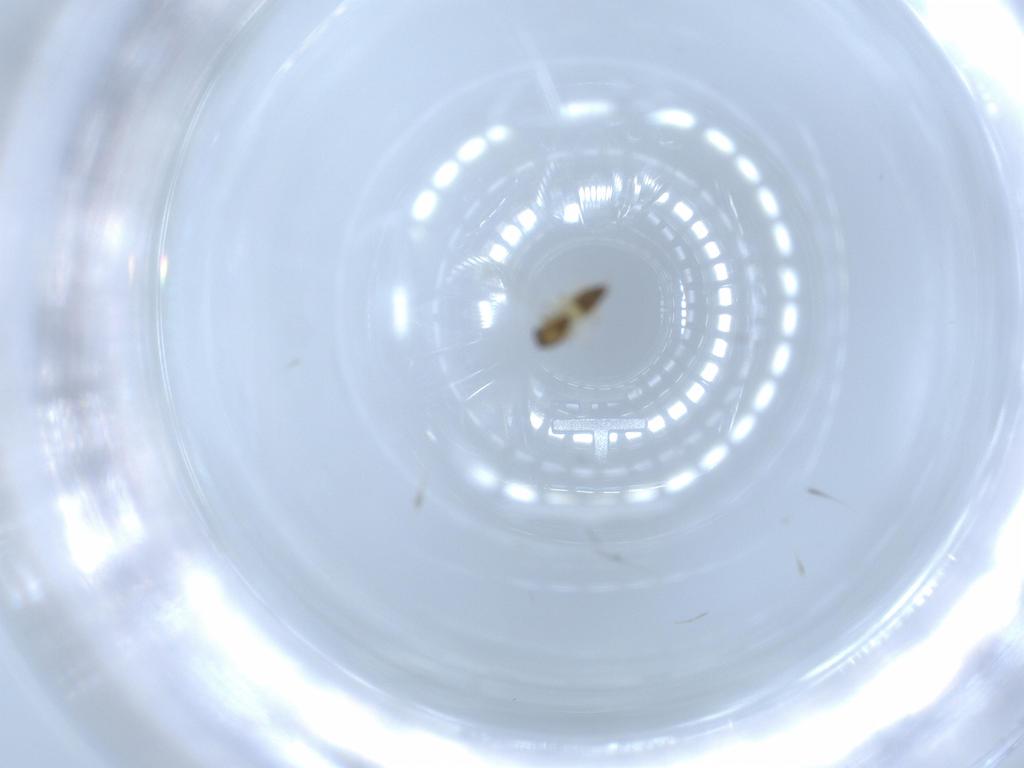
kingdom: Animalia
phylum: Arthropoda
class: Insecta
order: Diptera
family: Chironomidae
